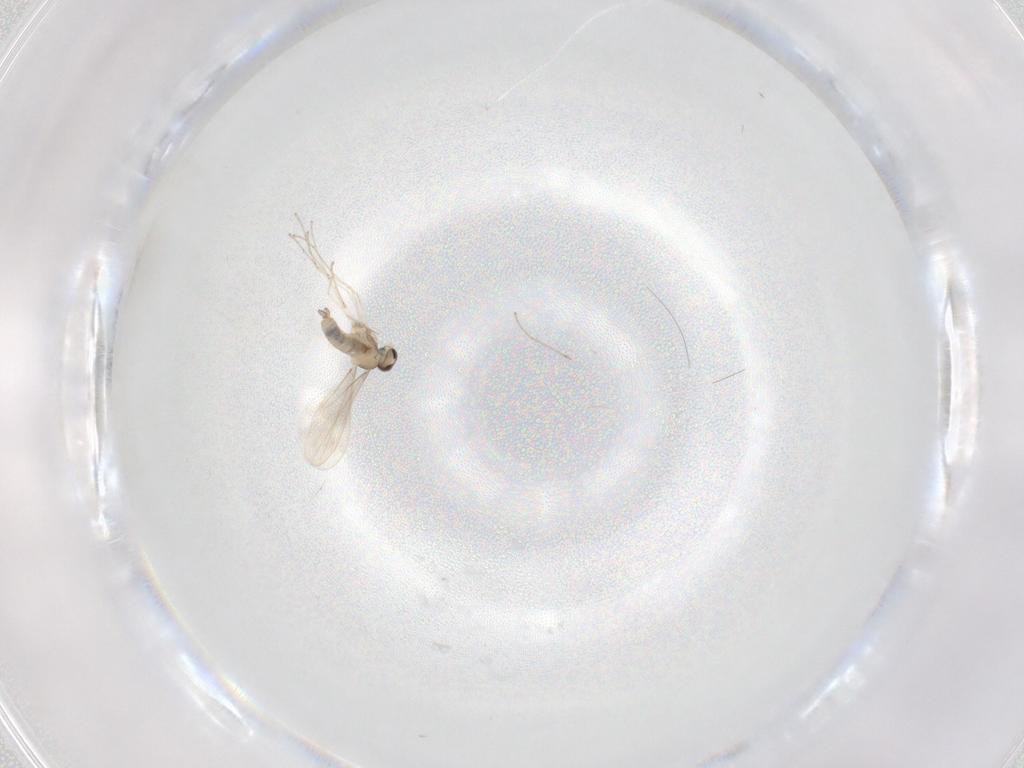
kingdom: Animalia
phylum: Arthropoda
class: Insecta
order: Diptera
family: Cecidomyiidae
